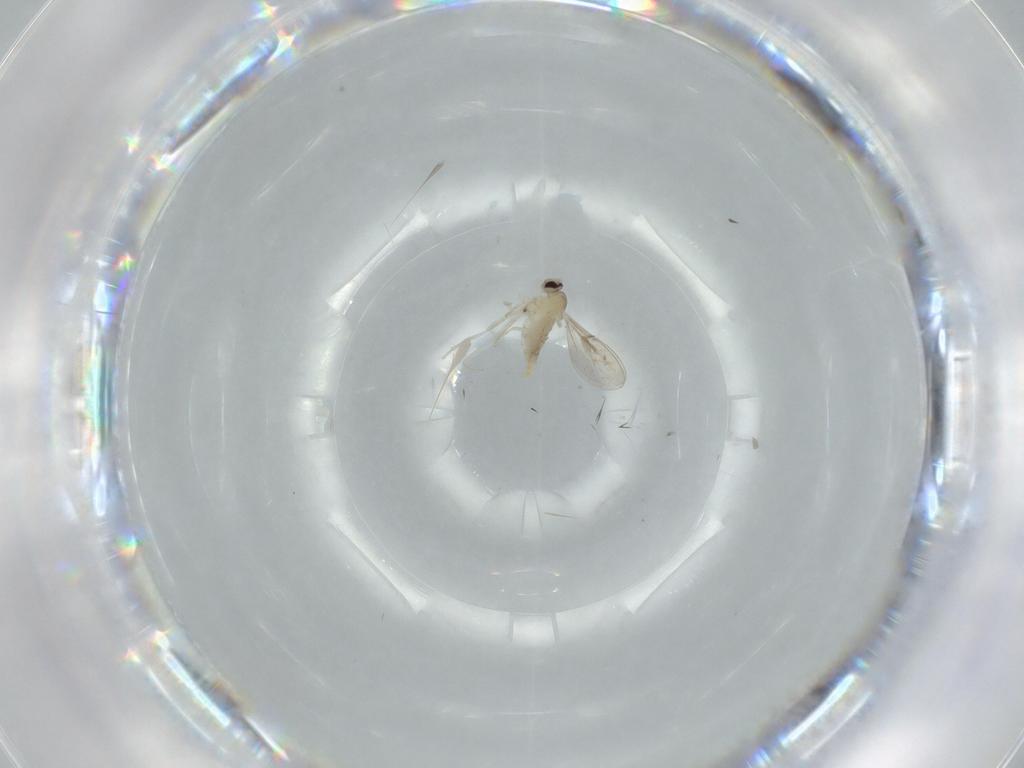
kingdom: Animalia
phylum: Arthropoda
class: Insecta
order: Diptera
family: Cecidomyiidae
